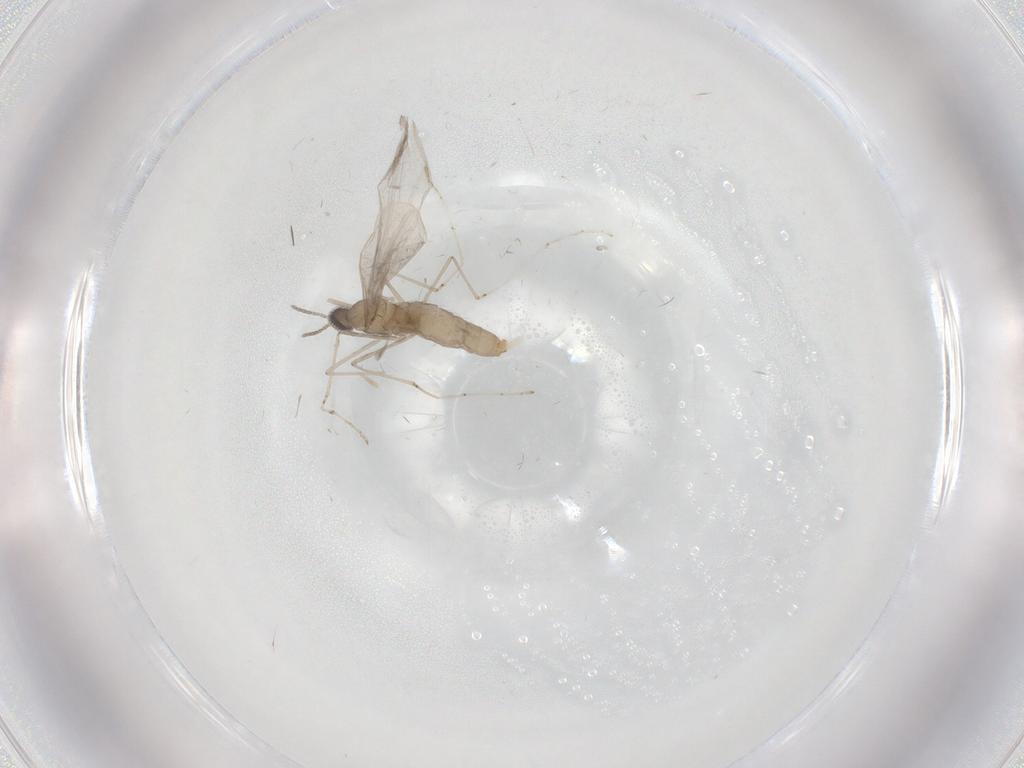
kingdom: Animalia
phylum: Arthropoda
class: Insecta
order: Diptera
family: Cecidomyiidae
